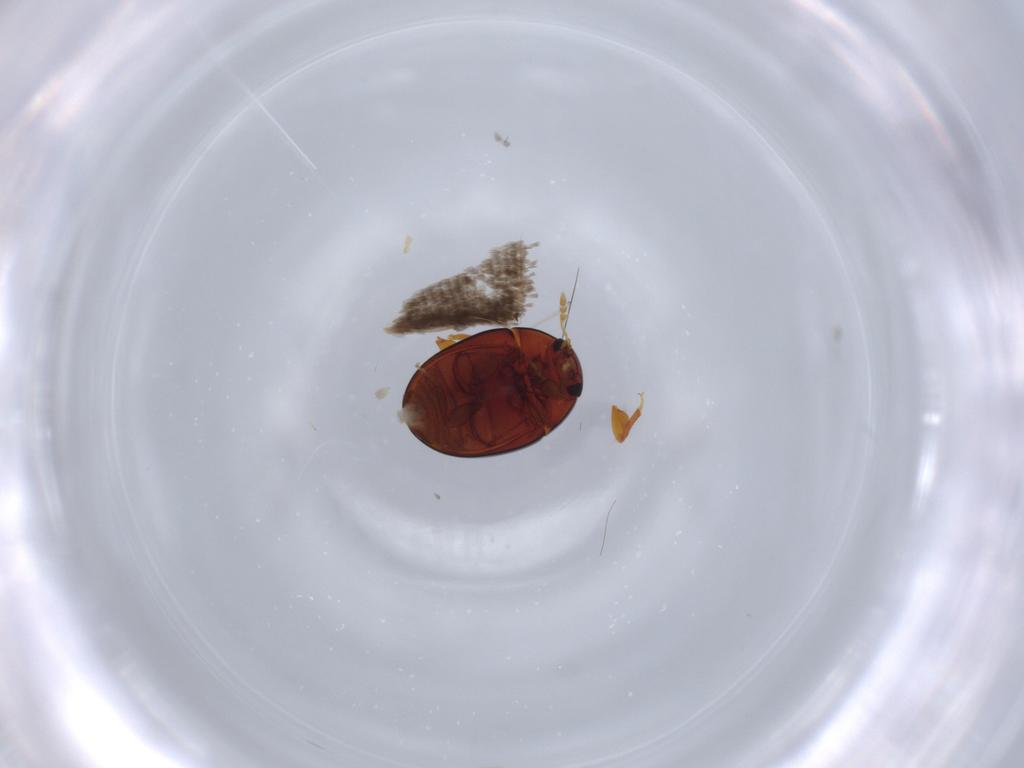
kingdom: Animalia
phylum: Arthropoda
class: Insecta
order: Coleoptera
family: Phalacridae
